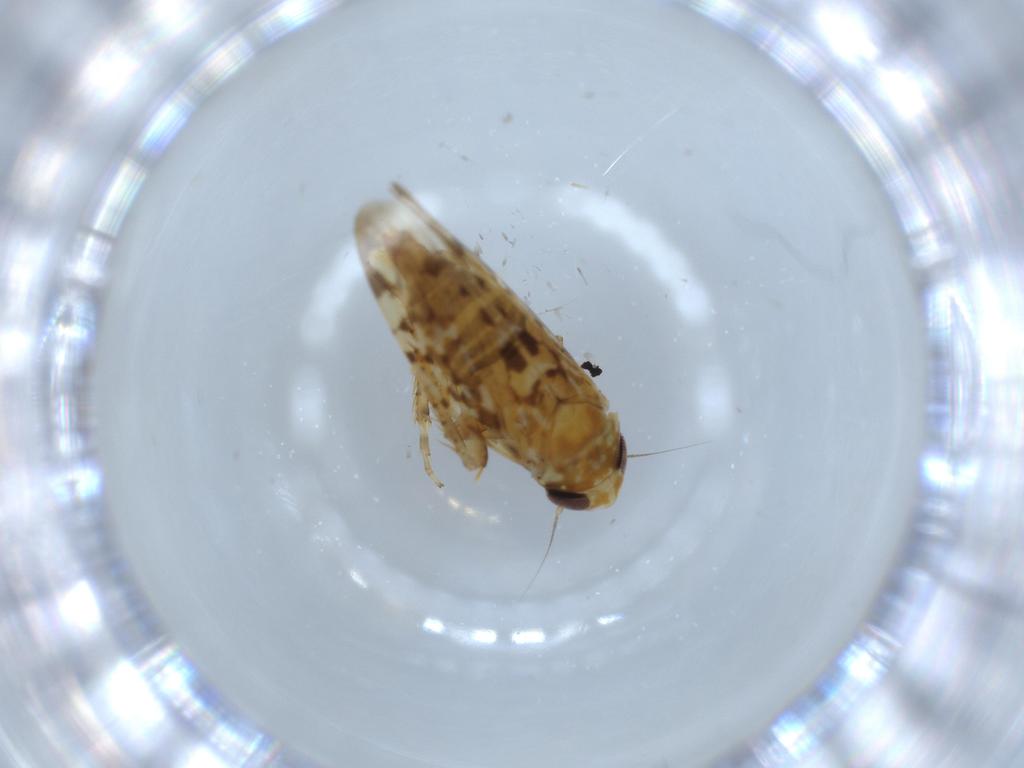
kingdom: Animalia
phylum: Arthropoda
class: Insecta
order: Hemiptera
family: Cicadellidae
